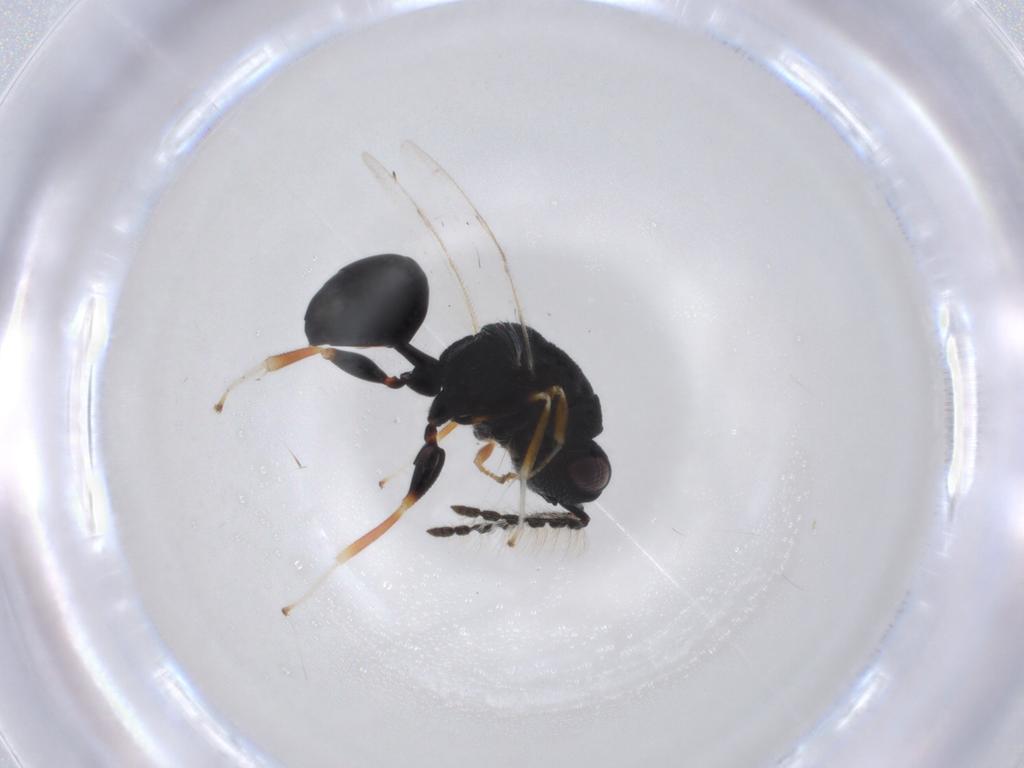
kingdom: Animalia
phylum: Arthropoda
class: Insecta
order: Hymenoptera
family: Eurytomidae
